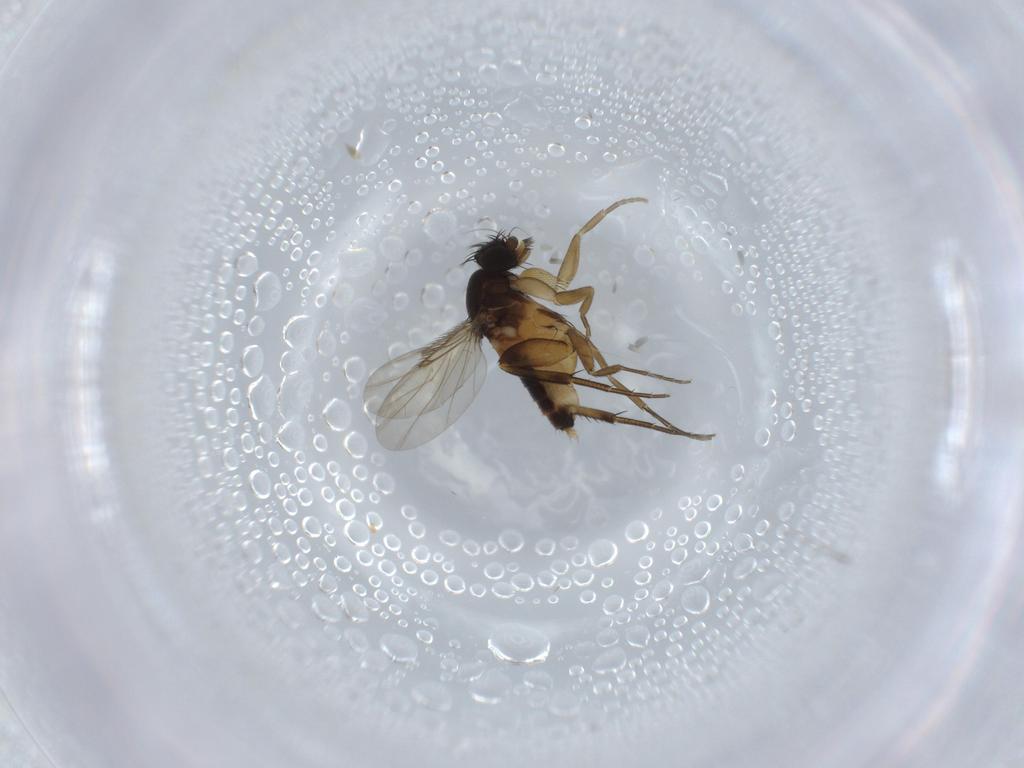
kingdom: Animalia
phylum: Arthropoda
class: Insecta
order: Diptera
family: Phoridae
